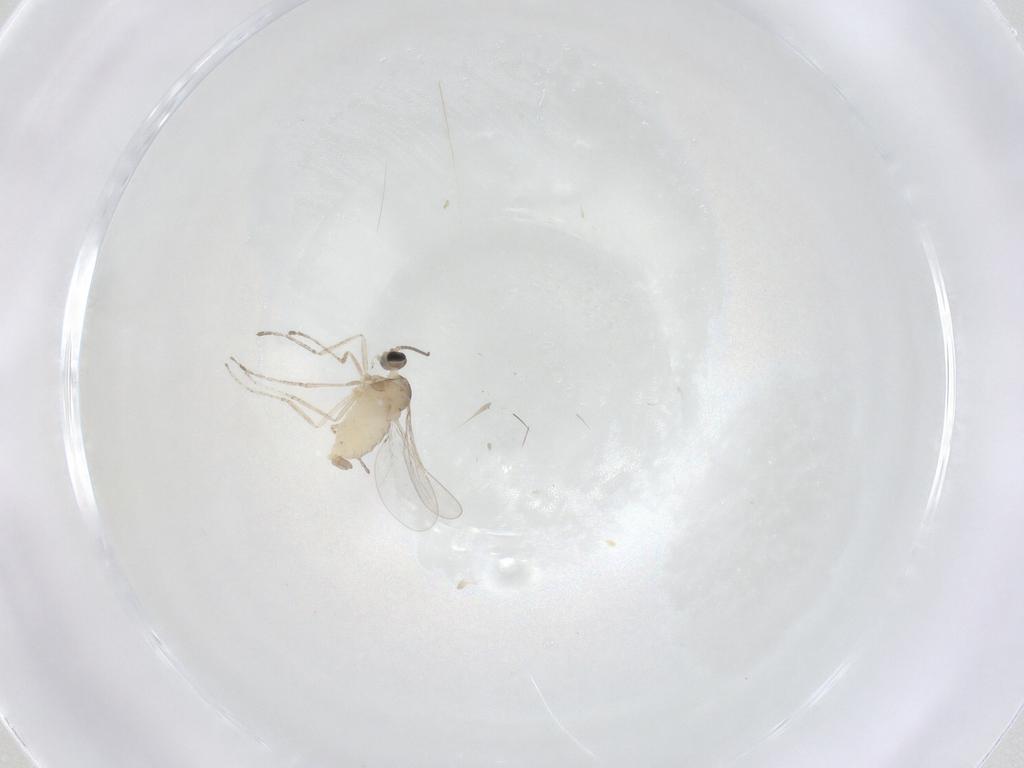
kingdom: Animalia
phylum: Arthropoda
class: Insecta
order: Diptera
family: Cecidomyiidae
